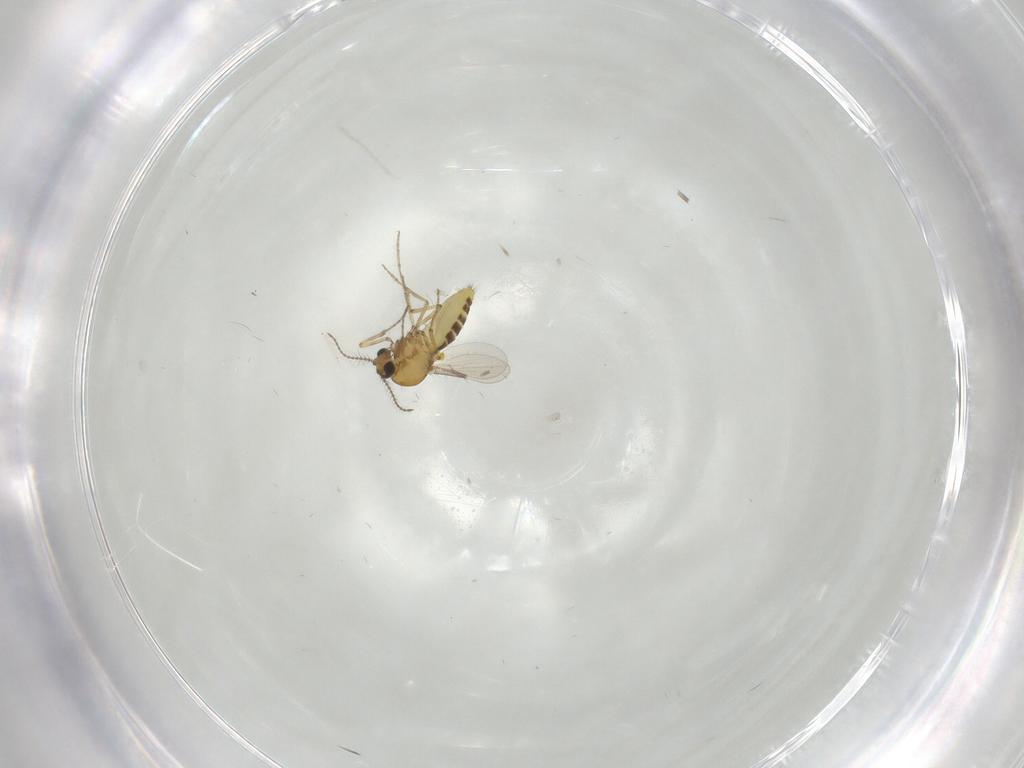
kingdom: Animalia
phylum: Arthropoda
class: Insecta
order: Diptera
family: Ceratopogonidae
